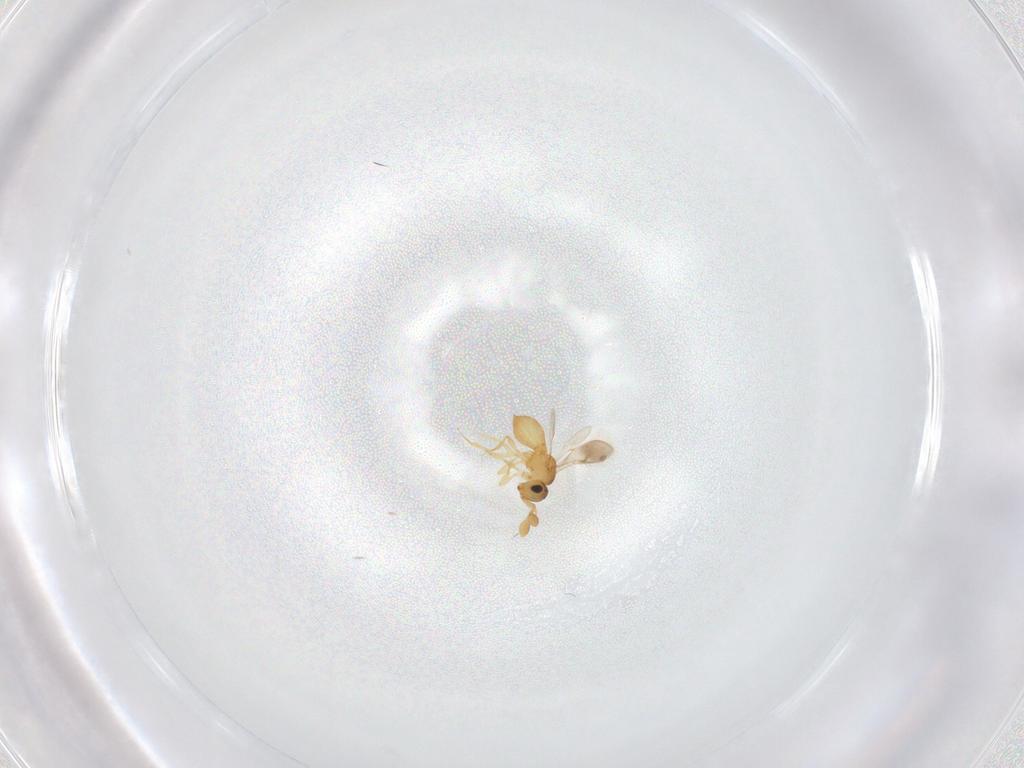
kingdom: Animalia
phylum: Arthropoda
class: Insecta
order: Hymenoptera
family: Scelionidae
